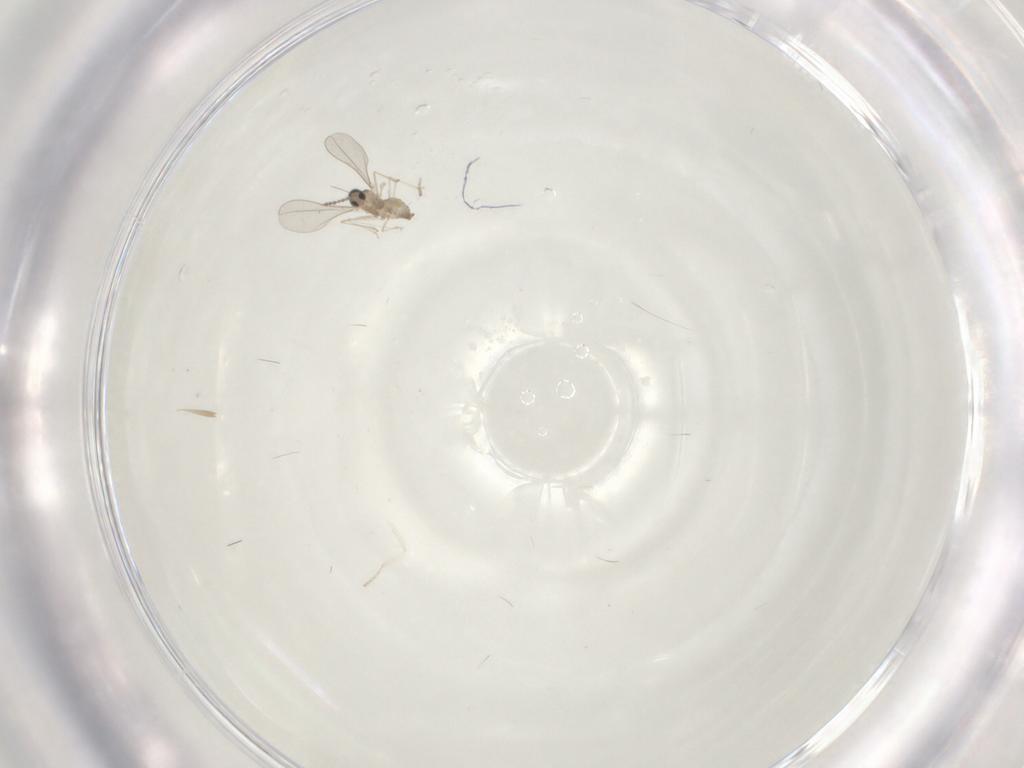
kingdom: Animalia
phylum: Arthropoda
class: Insecta
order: Diptera
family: Cecidomyiidae
